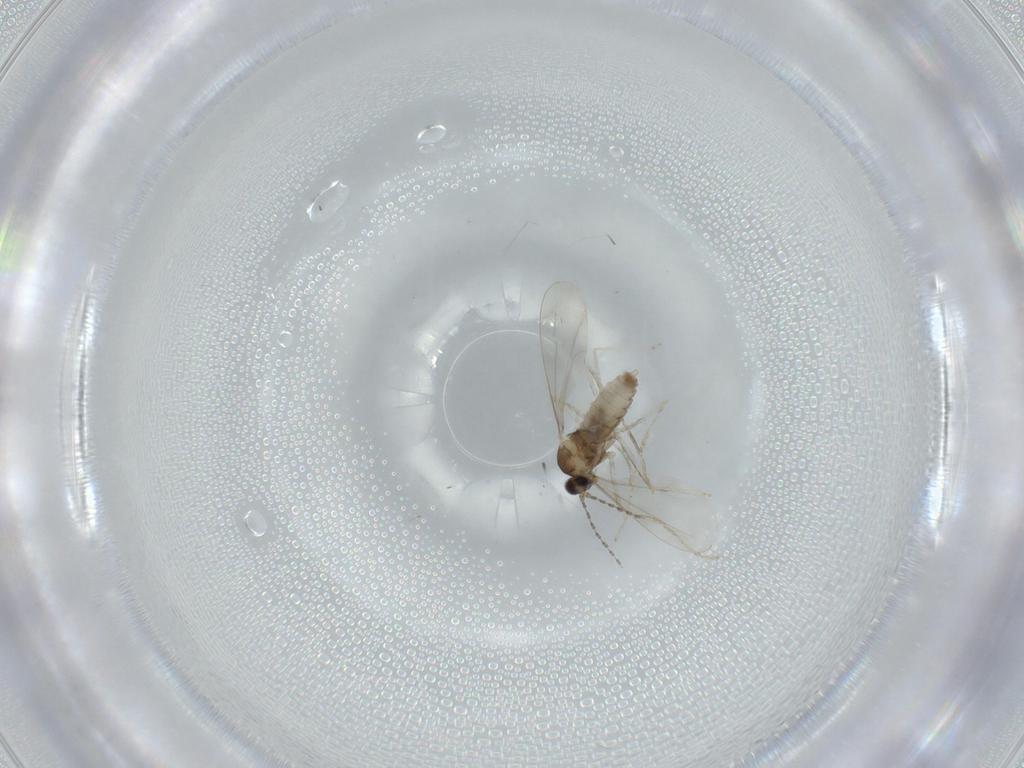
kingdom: Animalia
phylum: Arthropoda
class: Insecta
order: Diptera
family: Cecidomyiidae
